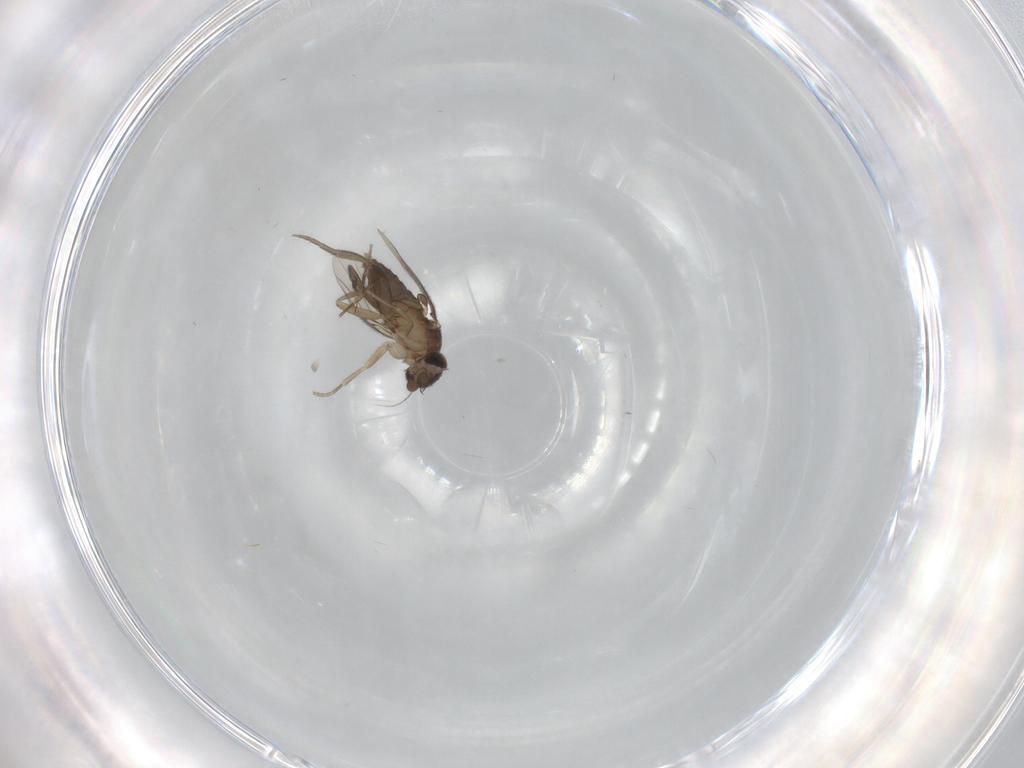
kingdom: Animalia
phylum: Arthropoda
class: Insecta
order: Diptera
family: Phoridae
